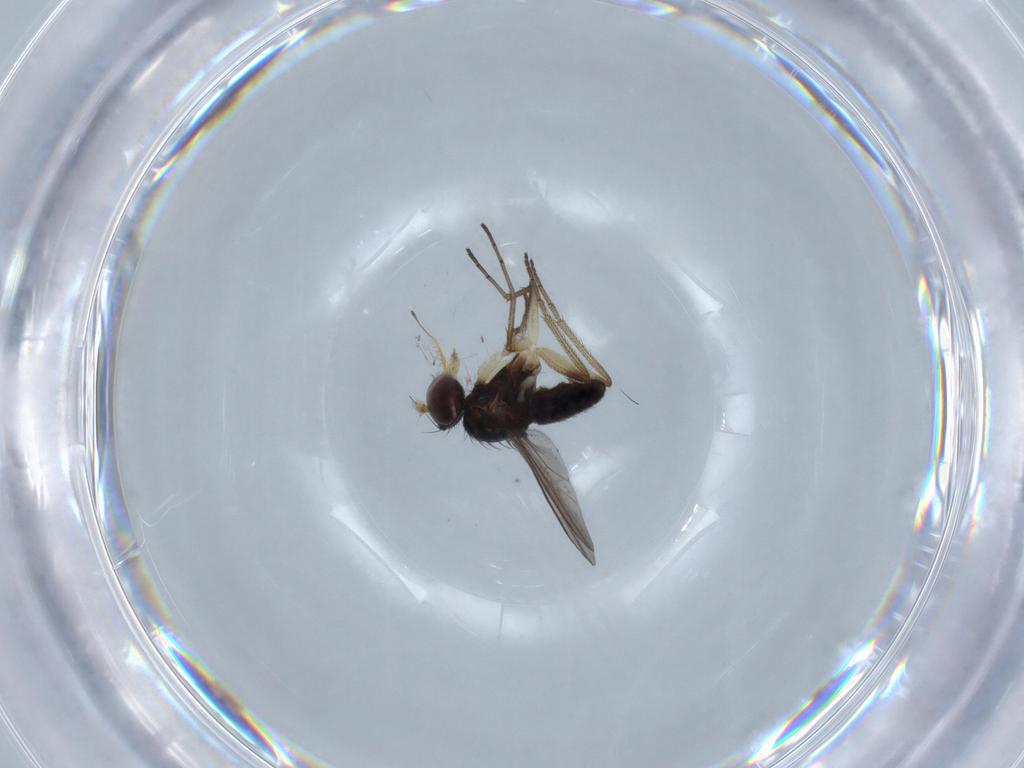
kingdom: Animalia
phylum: Arthropoda
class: Insecta
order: Diptera
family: Dolichopodidae
